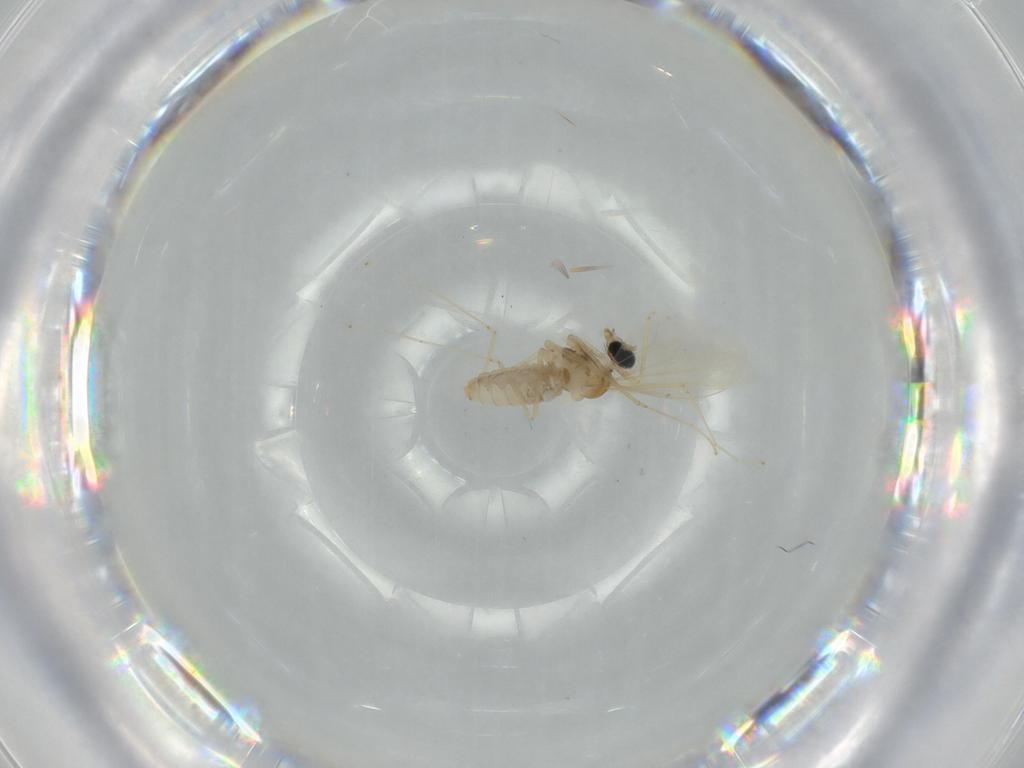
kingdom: Animalia
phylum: Arthropoda
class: Insecta
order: Diptera
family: Cecidomyiidae
